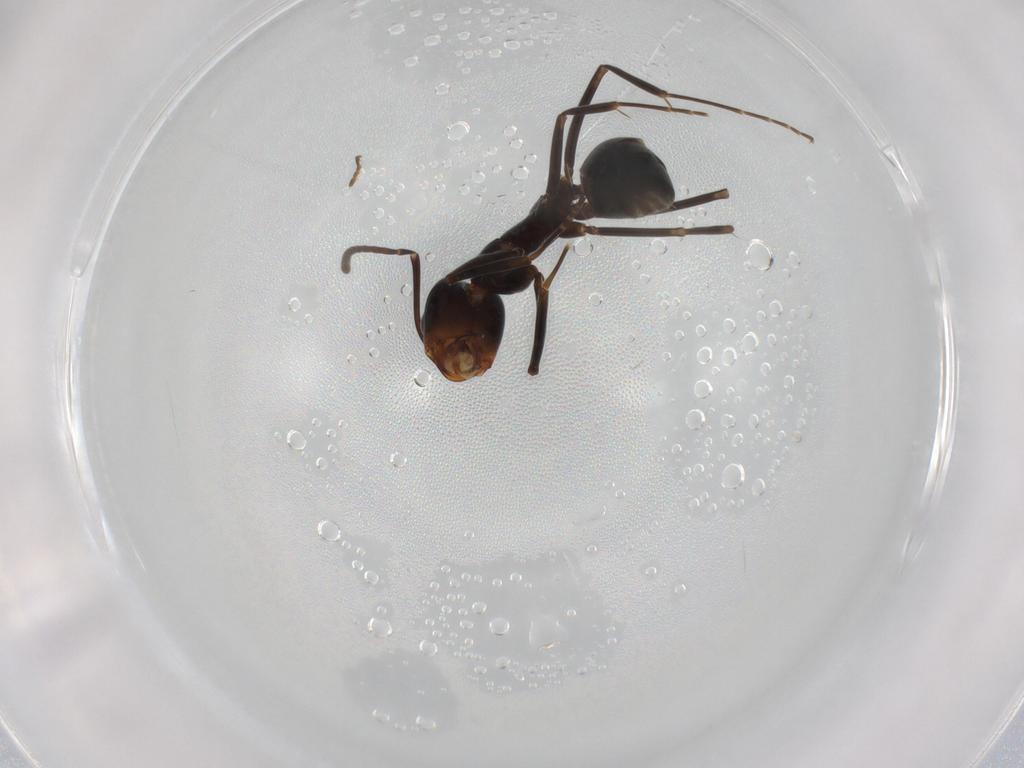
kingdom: Animalia
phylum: Arthropoda
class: Insecta
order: Hymenoptera
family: Formicidae
